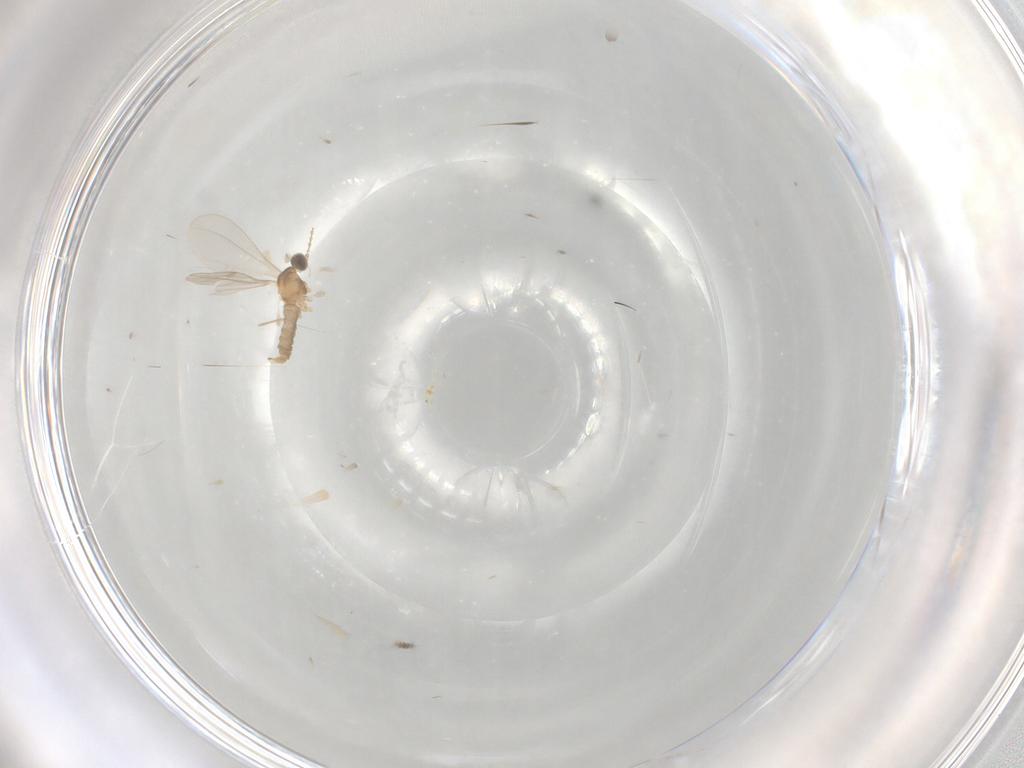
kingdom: Animalia
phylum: Arthropoda
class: Insecta
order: Diptera
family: Cecidomyiidae
